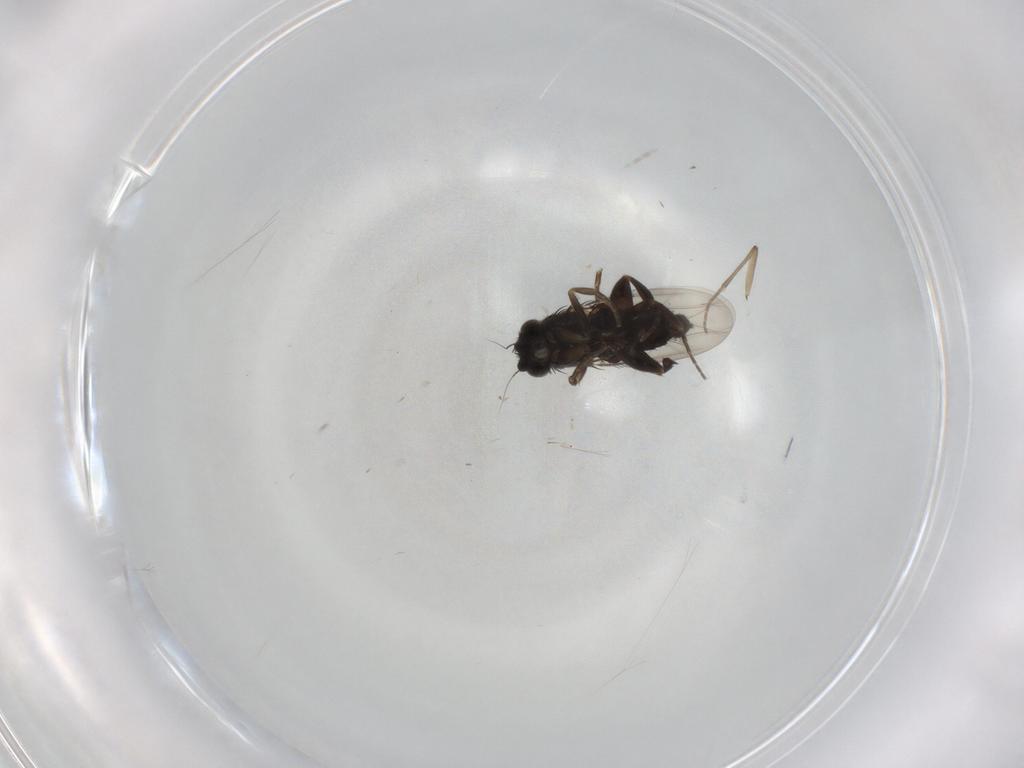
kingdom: Animalia
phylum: Arthropoda
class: Insecta
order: Diptera
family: Phoridae
